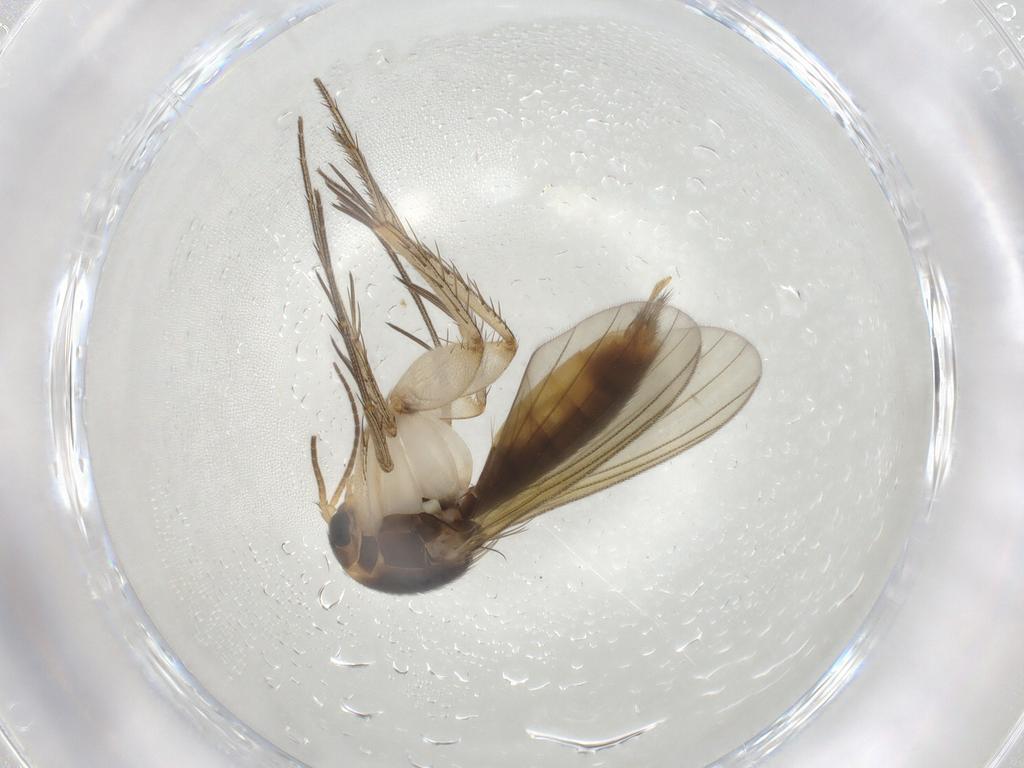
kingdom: Animalia
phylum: Arthropoda
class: Insecta
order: Diptera
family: Mycetophilidae
